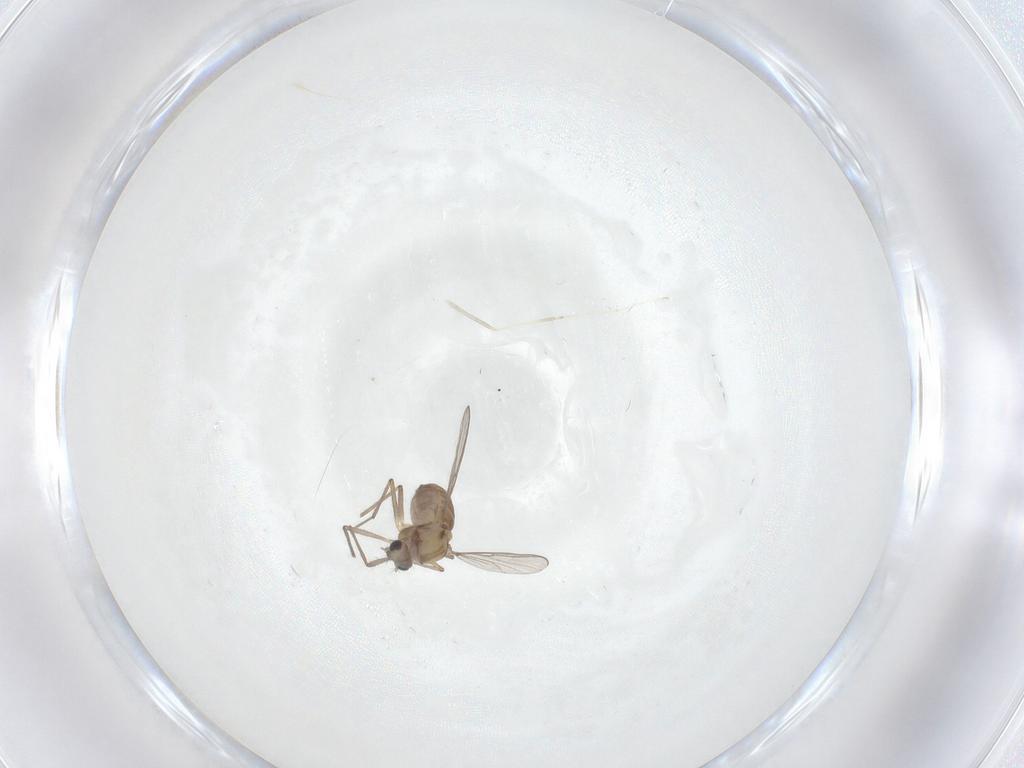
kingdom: Animalia
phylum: Arthropoda
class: Insecta
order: Diptera
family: Chironomidae
